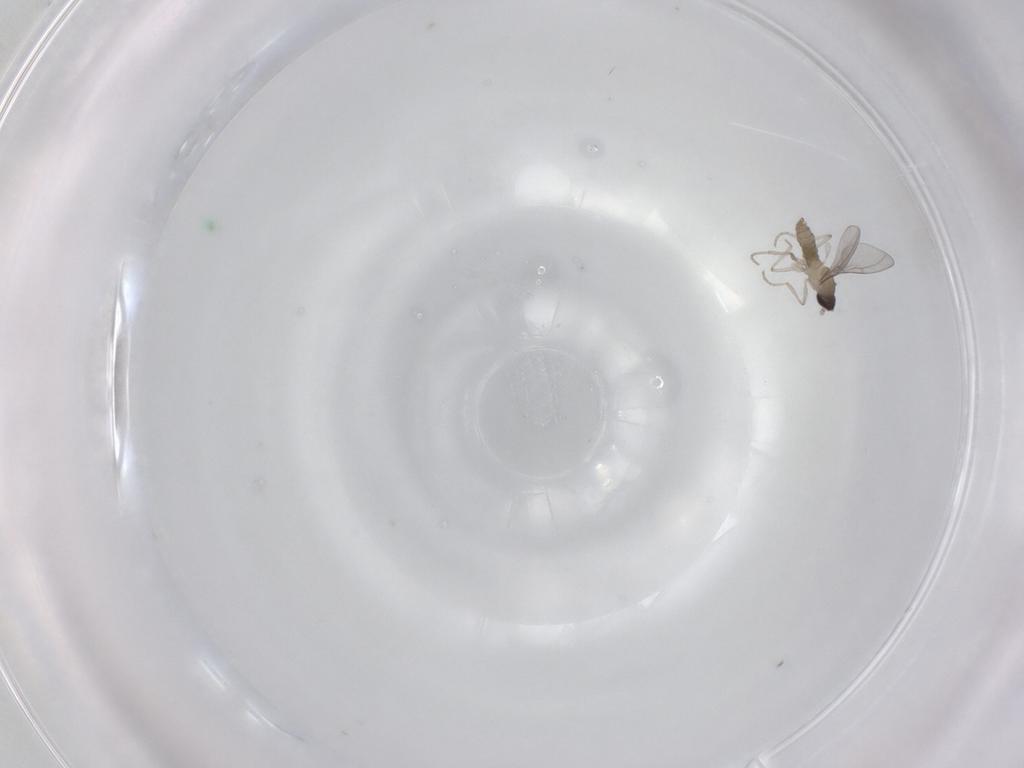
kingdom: Animalia
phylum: Arthropoda
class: Insecta
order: Diptera
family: Cecidomyiidae
